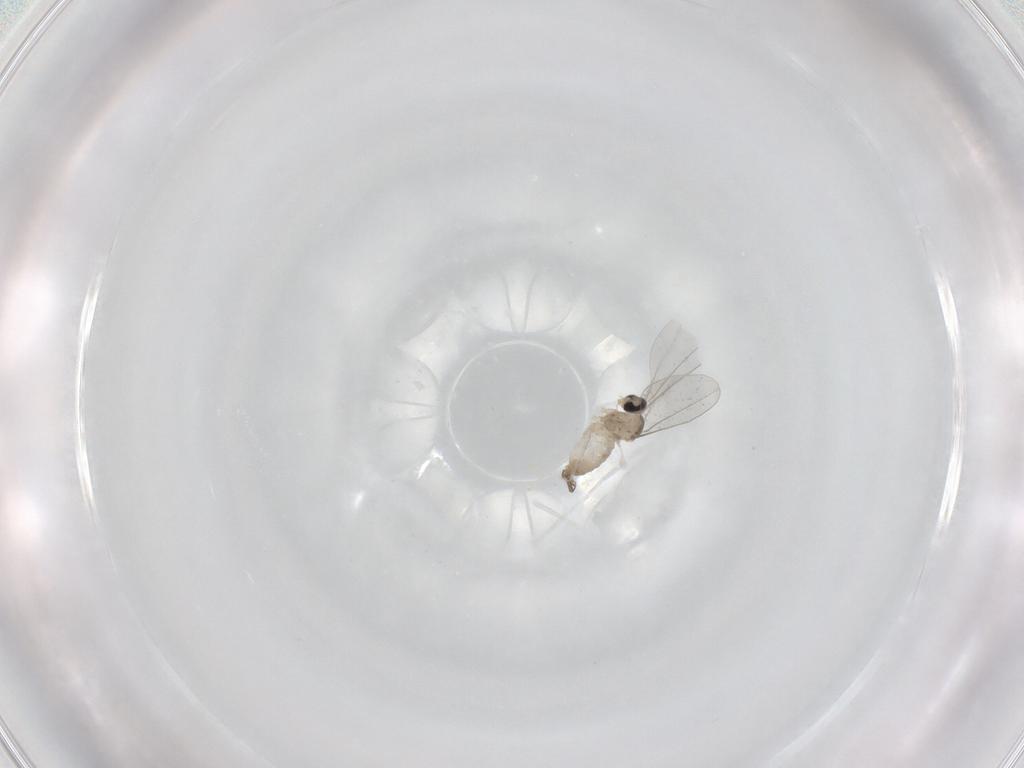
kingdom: Animalia
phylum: Arthropoda
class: Insecta
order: Diptera
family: Cecidomyiidae
